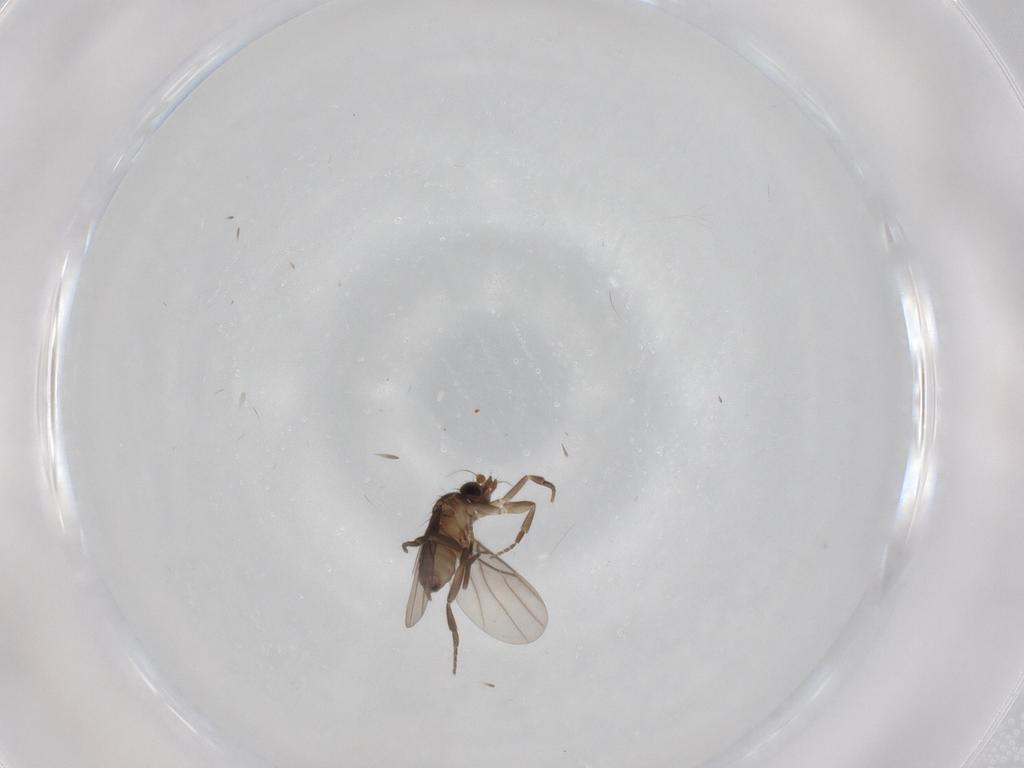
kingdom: Animalia
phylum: Arthropoda
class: Insecta
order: Diptera
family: Phoridae
